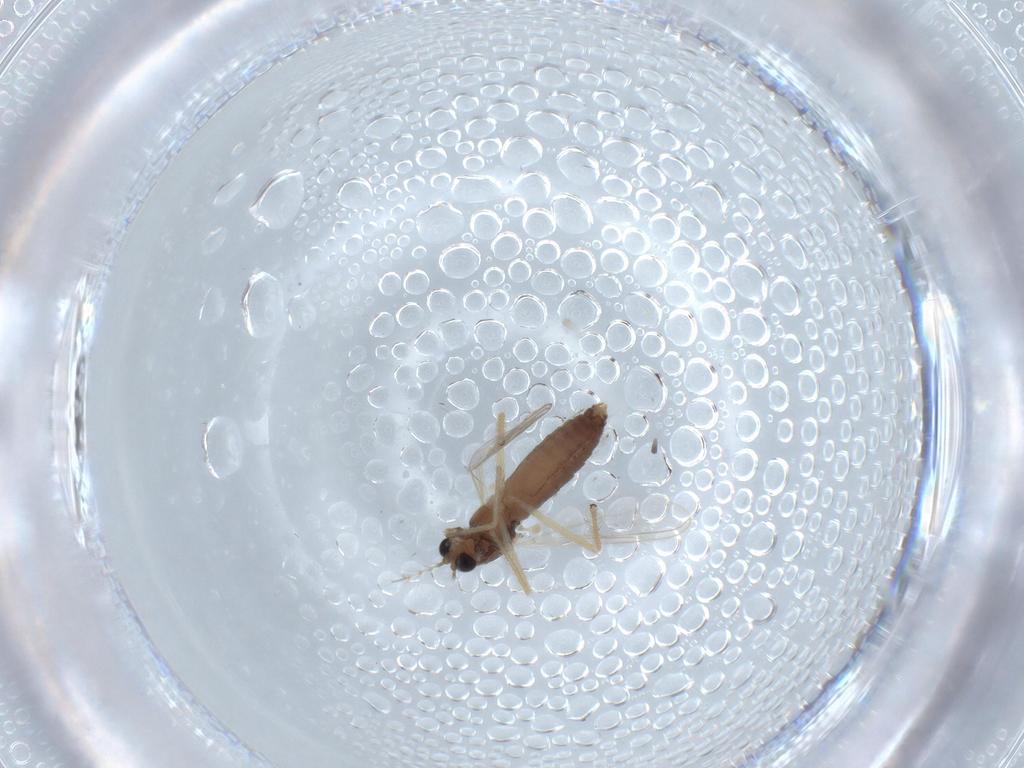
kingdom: Animalia
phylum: Arthropoda
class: Insecta
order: Diptera
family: Chironomidae
